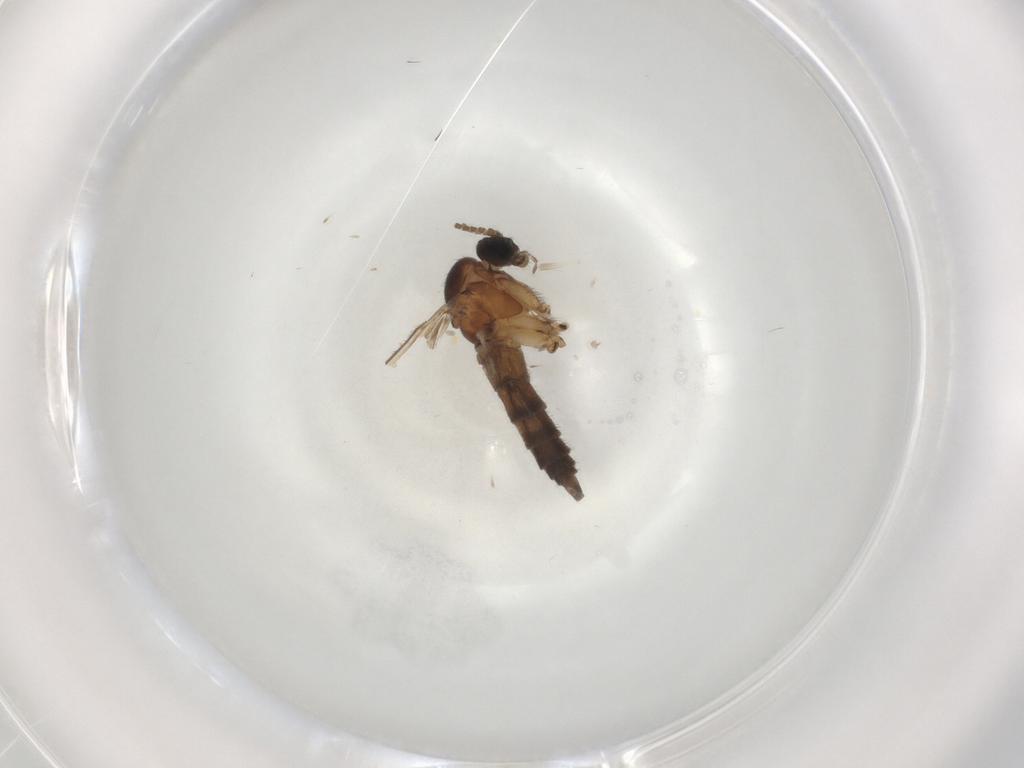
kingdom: Animalia
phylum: Arthropoda
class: Insecta
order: Diptera
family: Sciaridae
